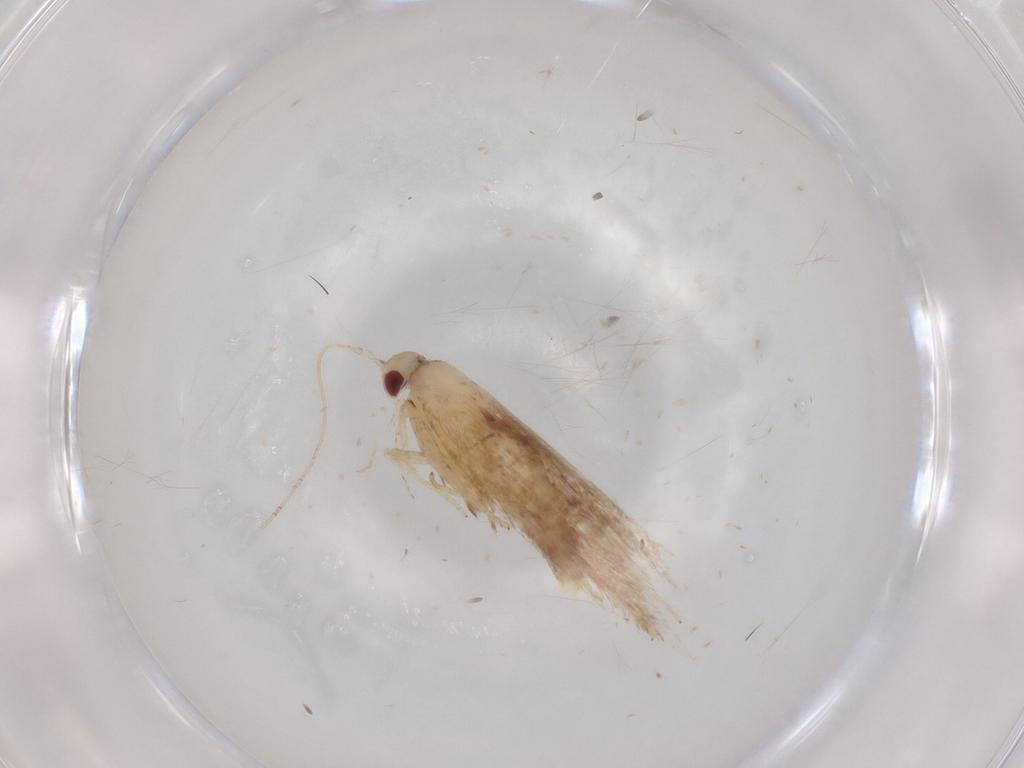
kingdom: Animalia
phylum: Arthropoda
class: Insecta
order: Lepidoptera
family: Cosmopterigidae
